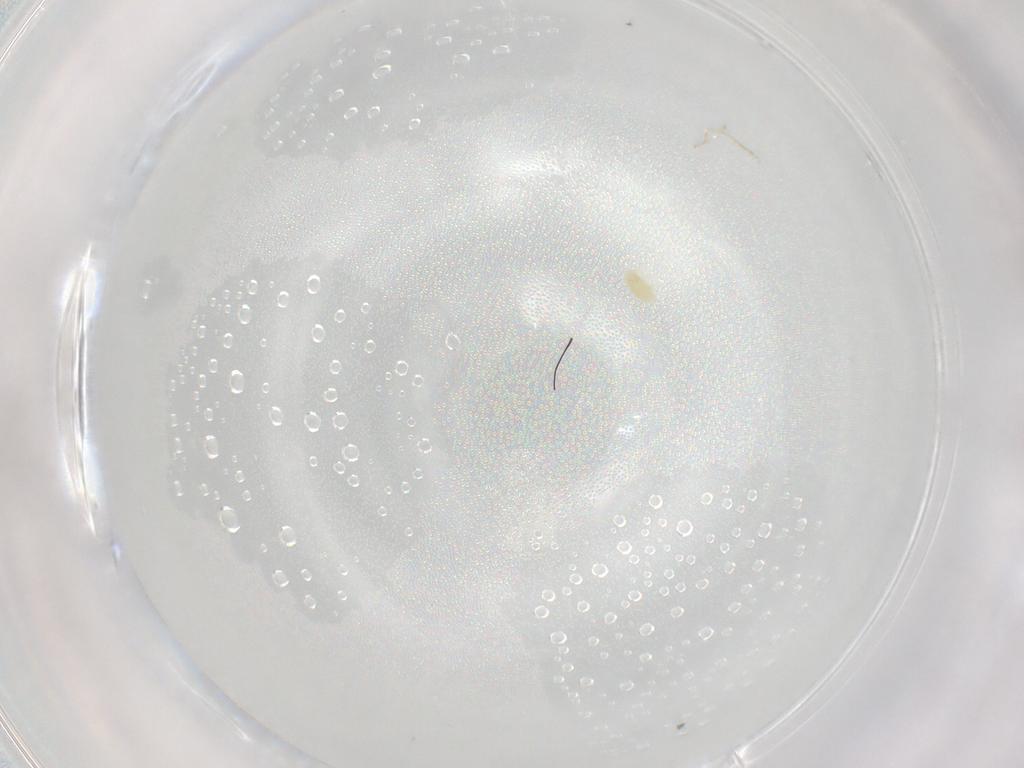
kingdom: Animalia
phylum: Arthropoda
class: Arachnida
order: Trombidiformes
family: Eupodidae
